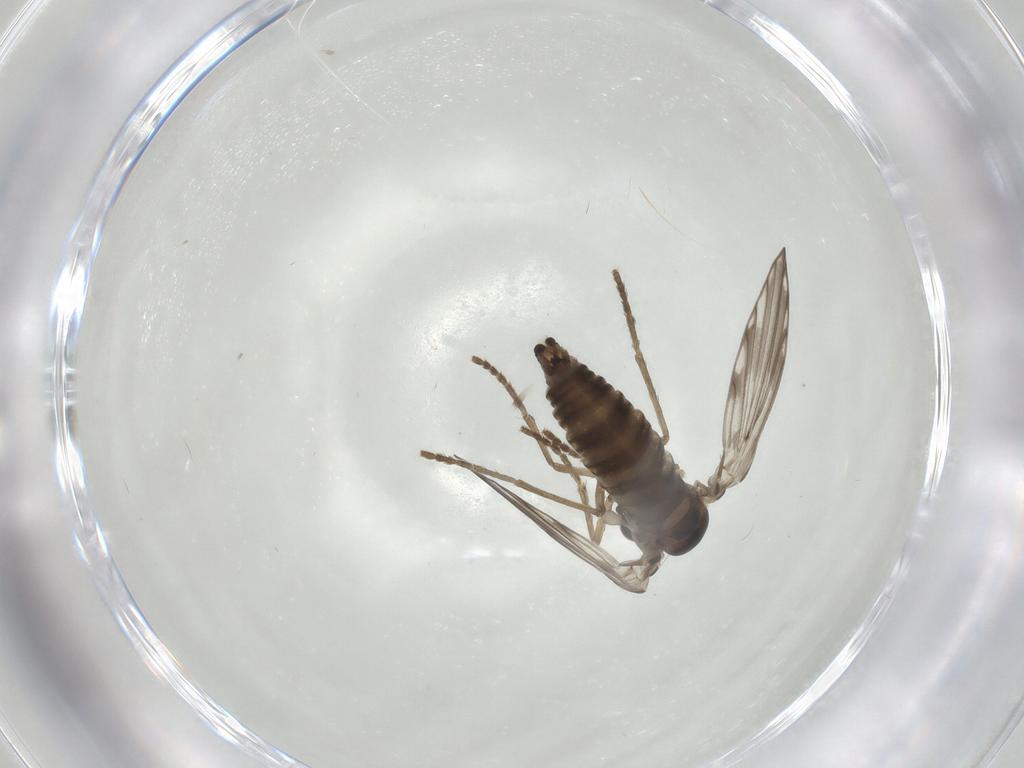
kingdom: Animalia
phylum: Arthropoda
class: Insecta
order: Diptera
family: Psychodidae
